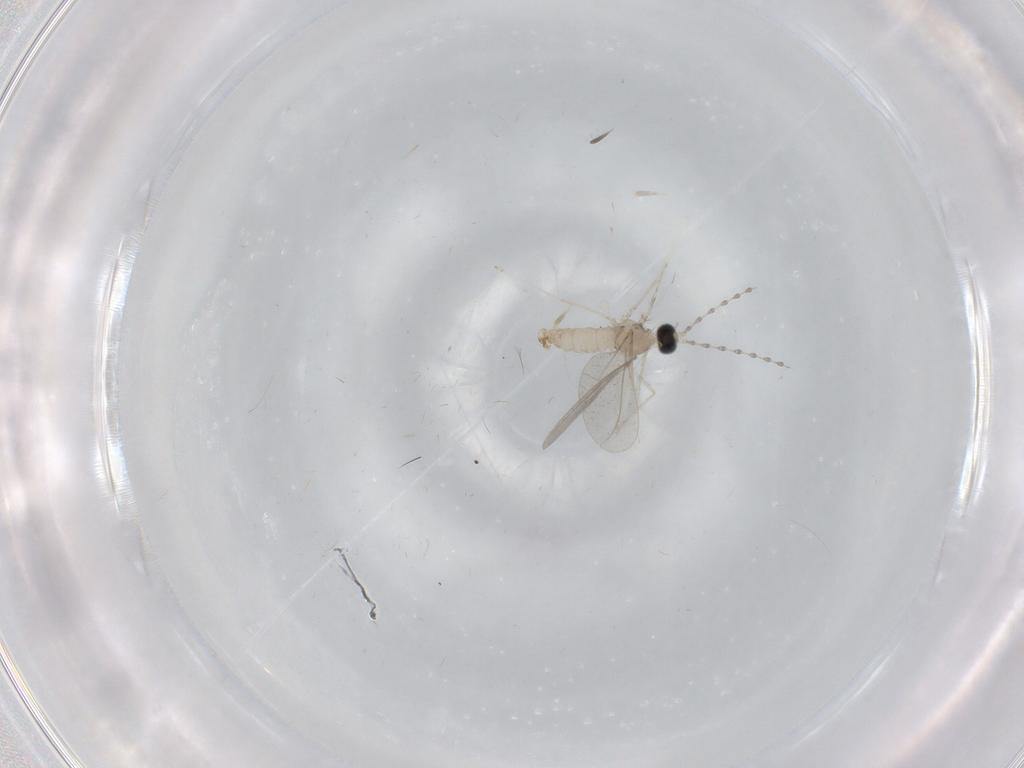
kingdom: Animalia
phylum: Arthropoda
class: Insecta
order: Diptera
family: Cecidomyiidae
